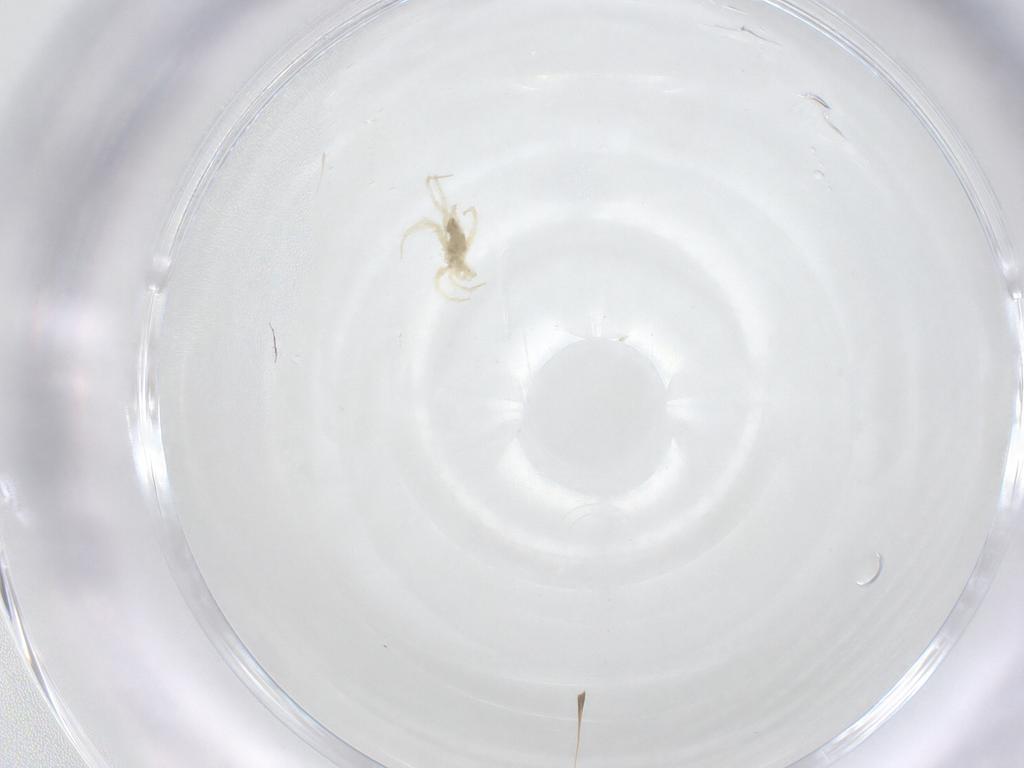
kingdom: Animalia
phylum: Arthropoda
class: Arachnida
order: Trombidiformes
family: Anystidae
